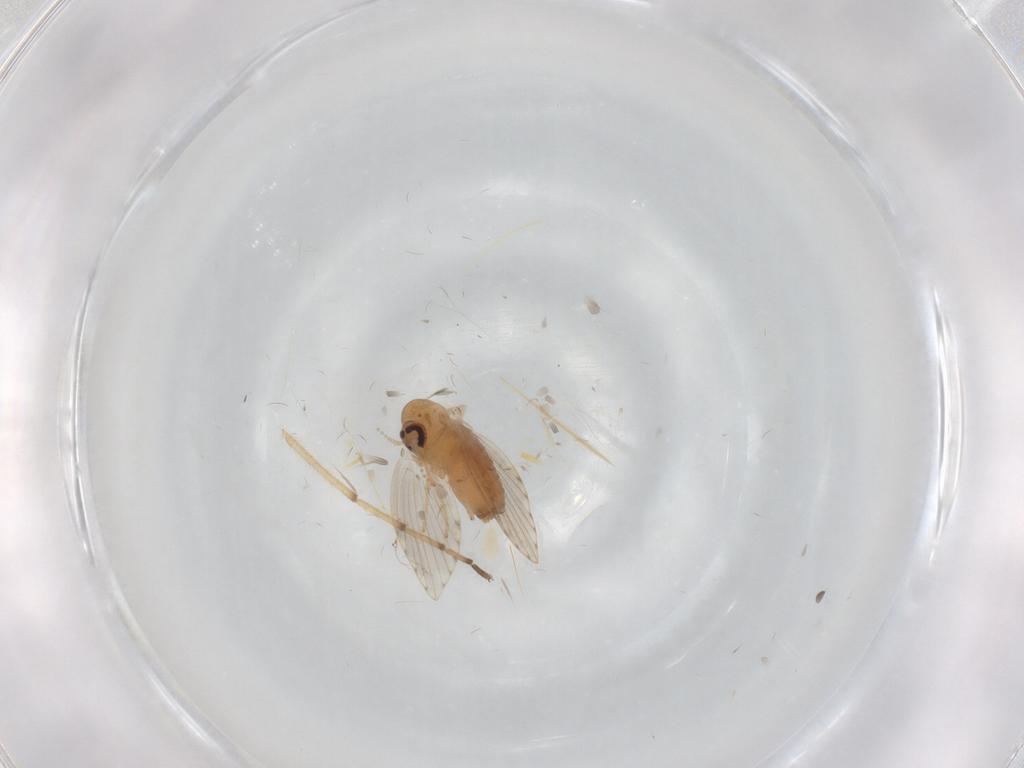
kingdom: Animalia
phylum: Arthropoda
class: Insecta
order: Diptera
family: Psychodidae
